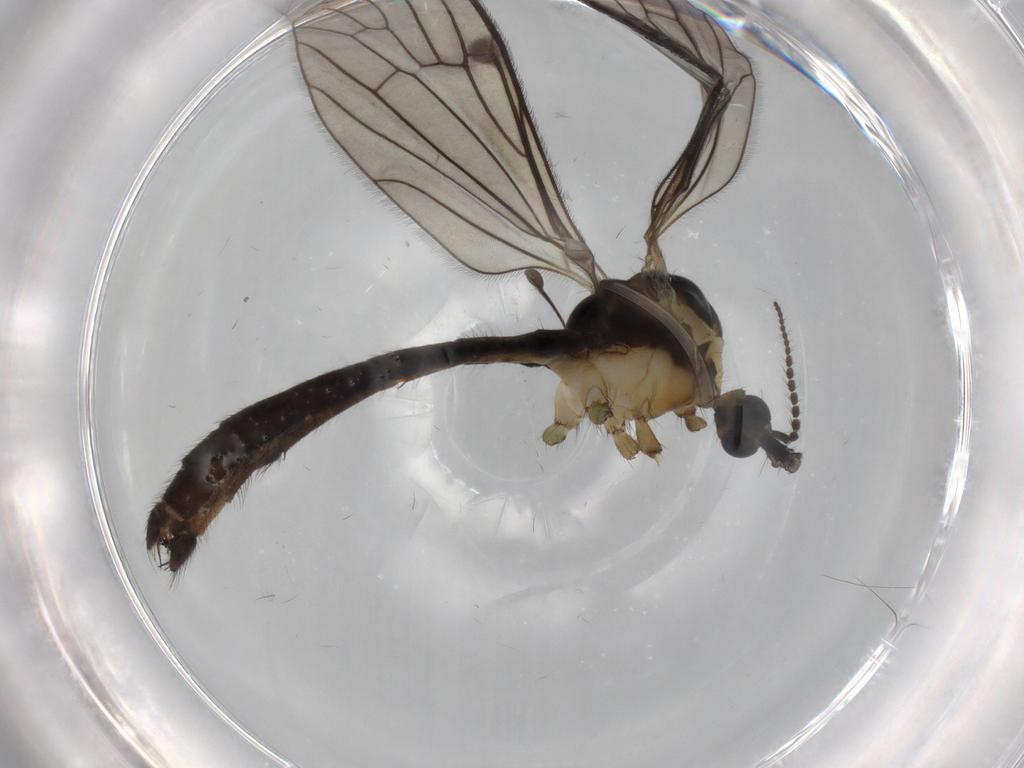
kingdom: Animalia
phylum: Arthropoda
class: Insecta
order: Diptera
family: Limoniidae
